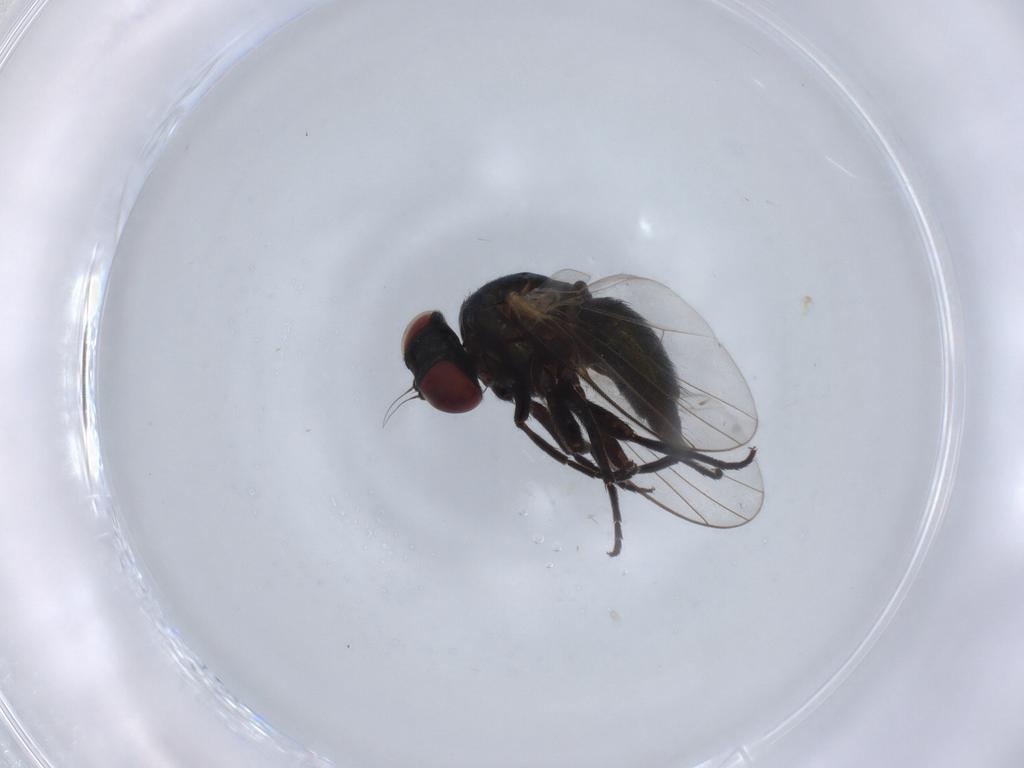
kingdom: Animalia
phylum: Arthropoda
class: Insecta
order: Diptera
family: Agromyzidae
